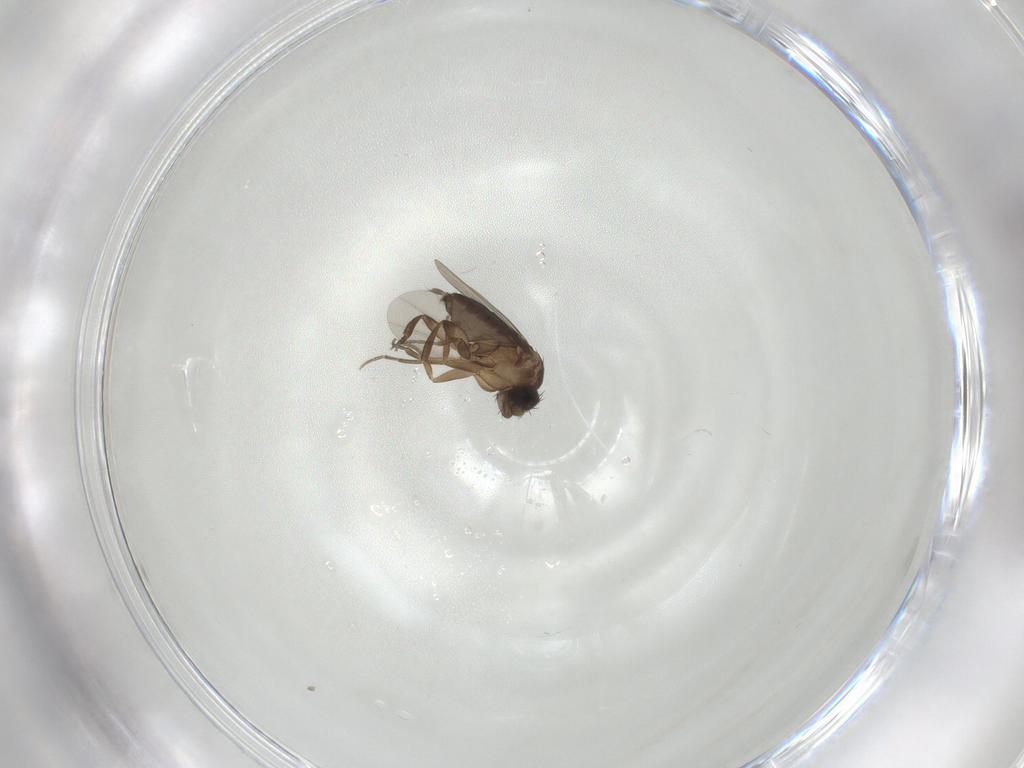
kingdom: Animalia
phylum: Arthropoda
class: Insecta
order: Diptera
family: Phoridae
